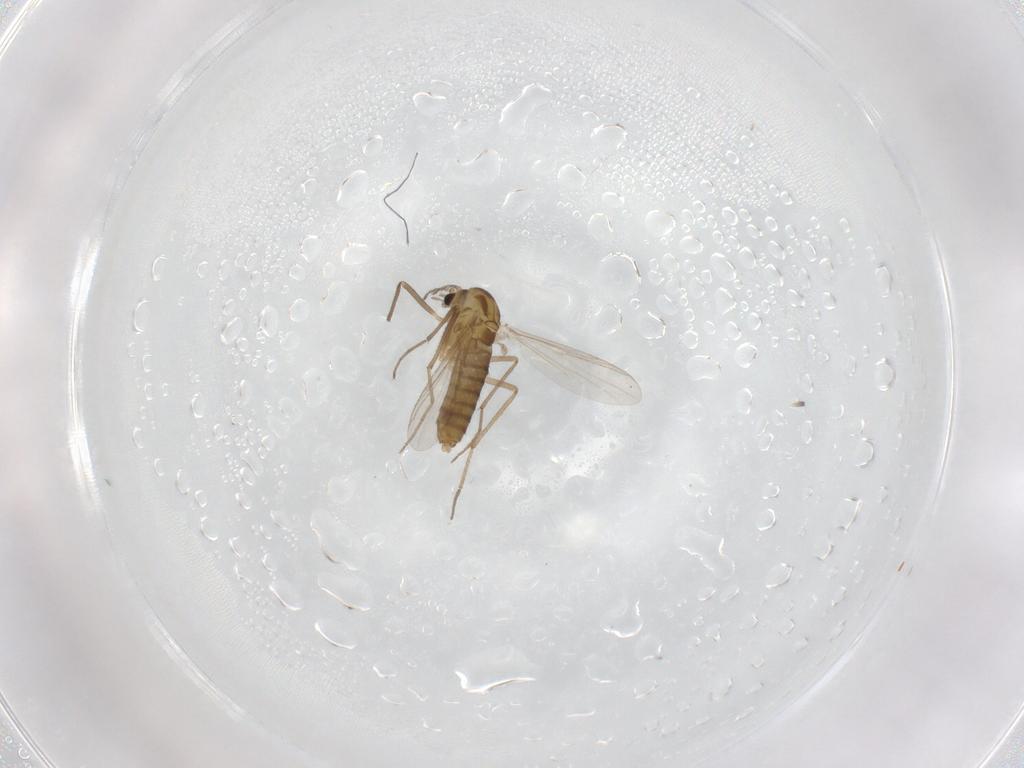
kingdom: Animalia
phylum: Arthropoda
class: Insecta
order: Diptera
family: Chironomidae
